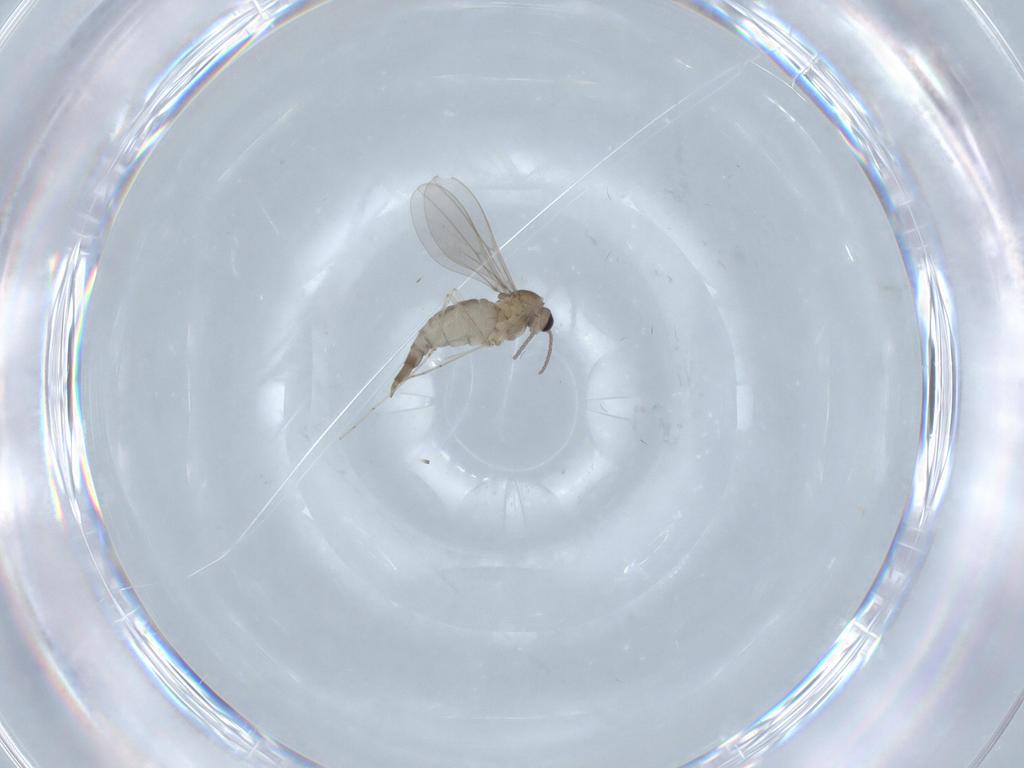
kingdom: Animalia
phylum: Arthropoda
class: Insecta
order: Diptera
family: Cecidomyiidae
